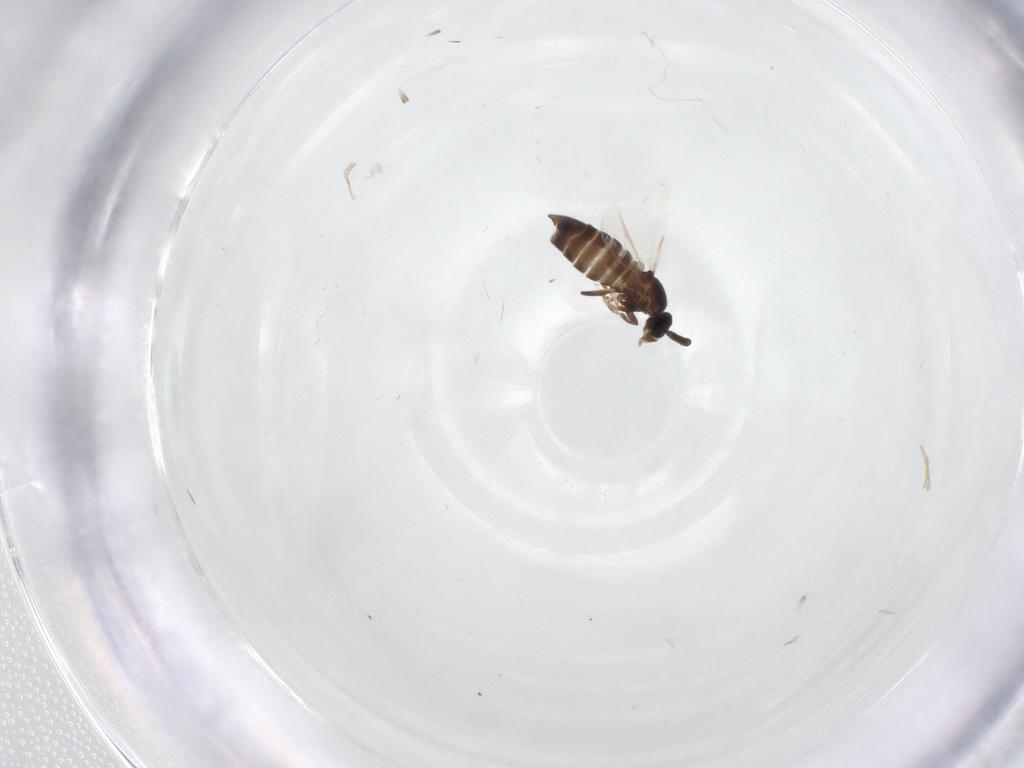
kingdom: Animalia
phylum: Arthropoda
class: Insecta
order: Diptera
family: Scatopsidae
